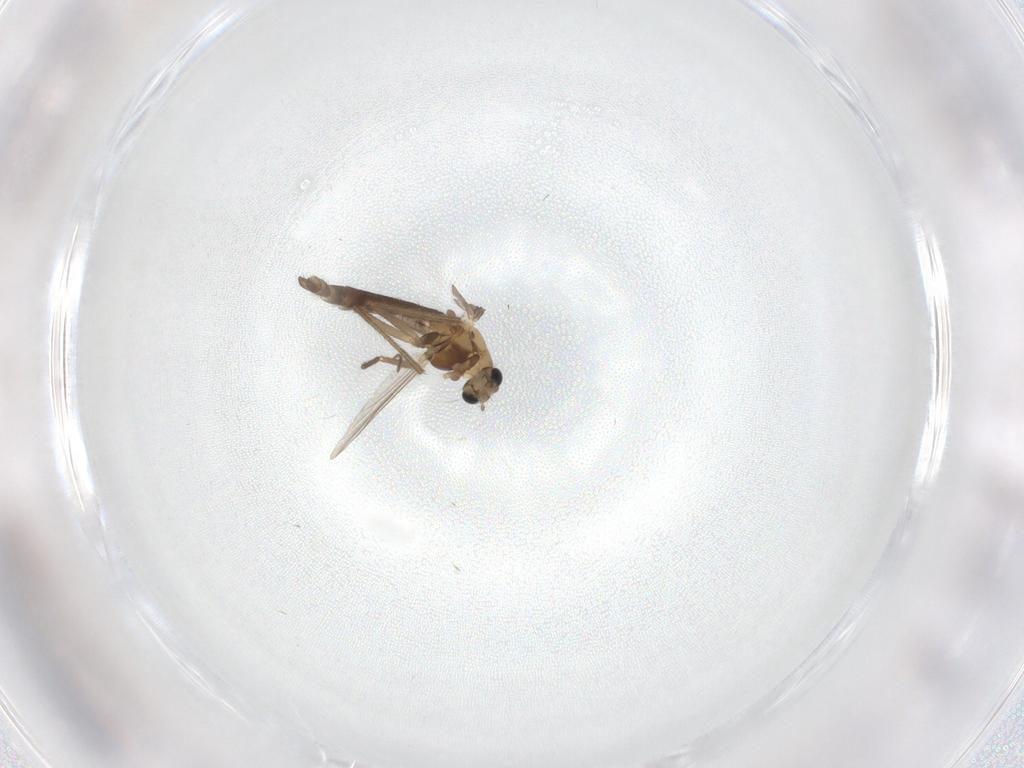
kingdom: Animalia
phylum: Arthropoda
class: Insecta
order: Diptera
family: Chironomidae
